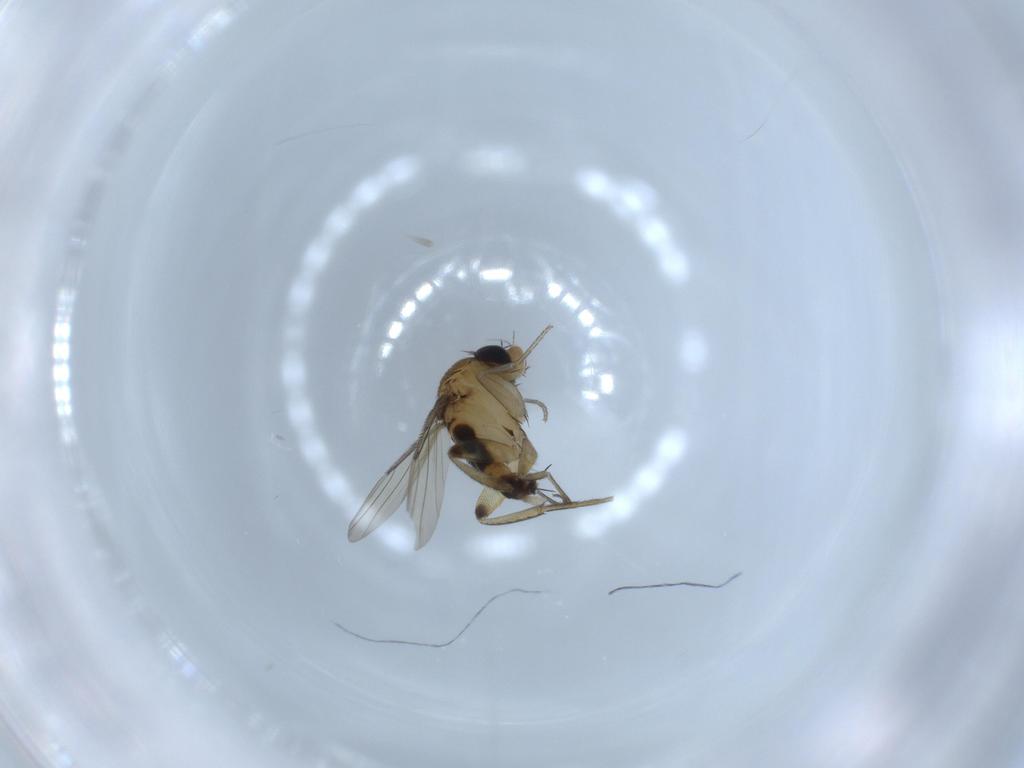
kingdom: Animalia
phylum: Arthropoda
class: Insecta
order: Diptera
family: Phoridae
